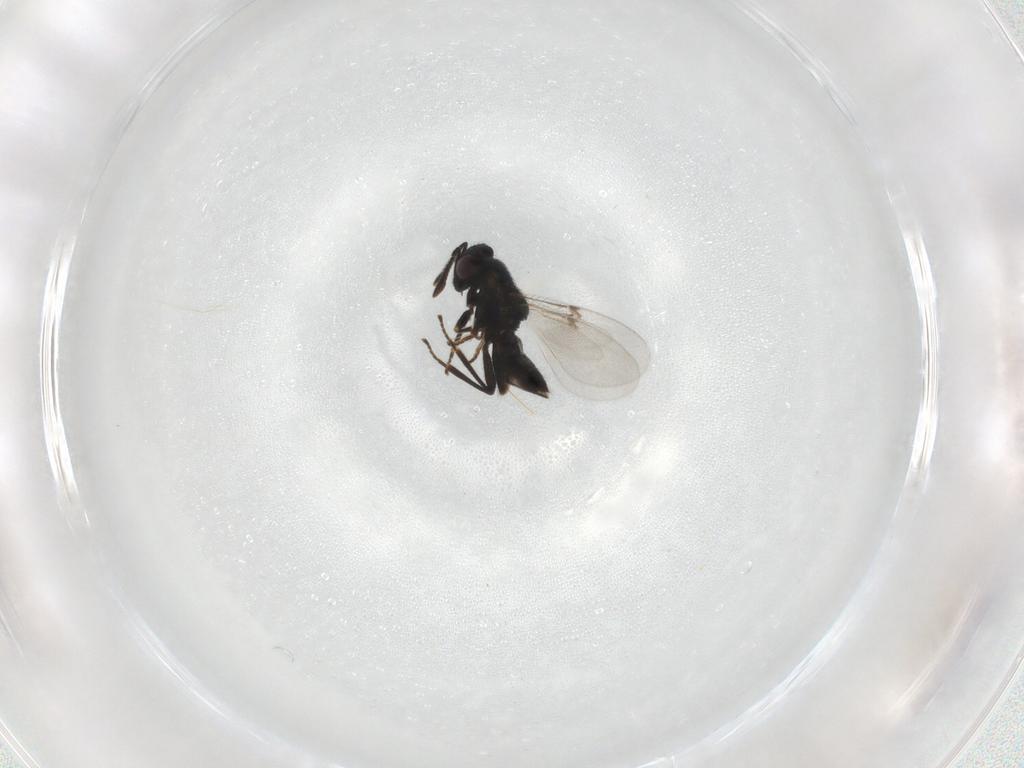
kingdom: Animalia
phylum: Arthropoda
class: Insecta
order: Hymenoptera
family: Encyrtidae
